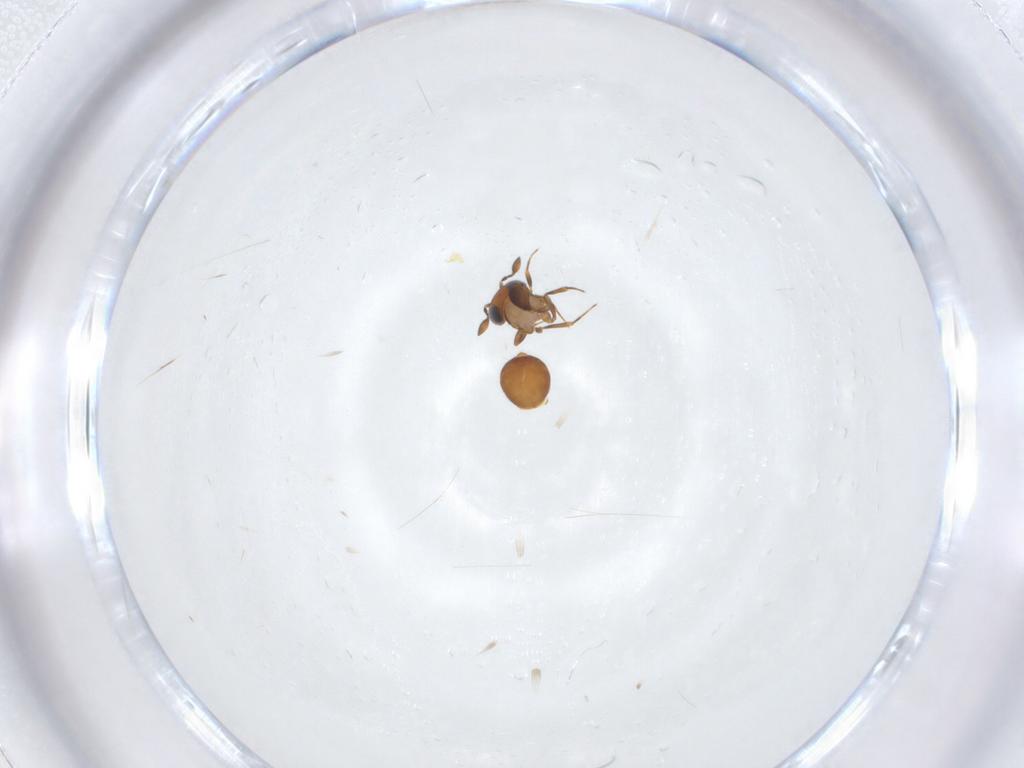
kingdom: Animalia
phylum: Arthropoda
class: Insecta
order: Hymenoptera
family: Scelionidae
